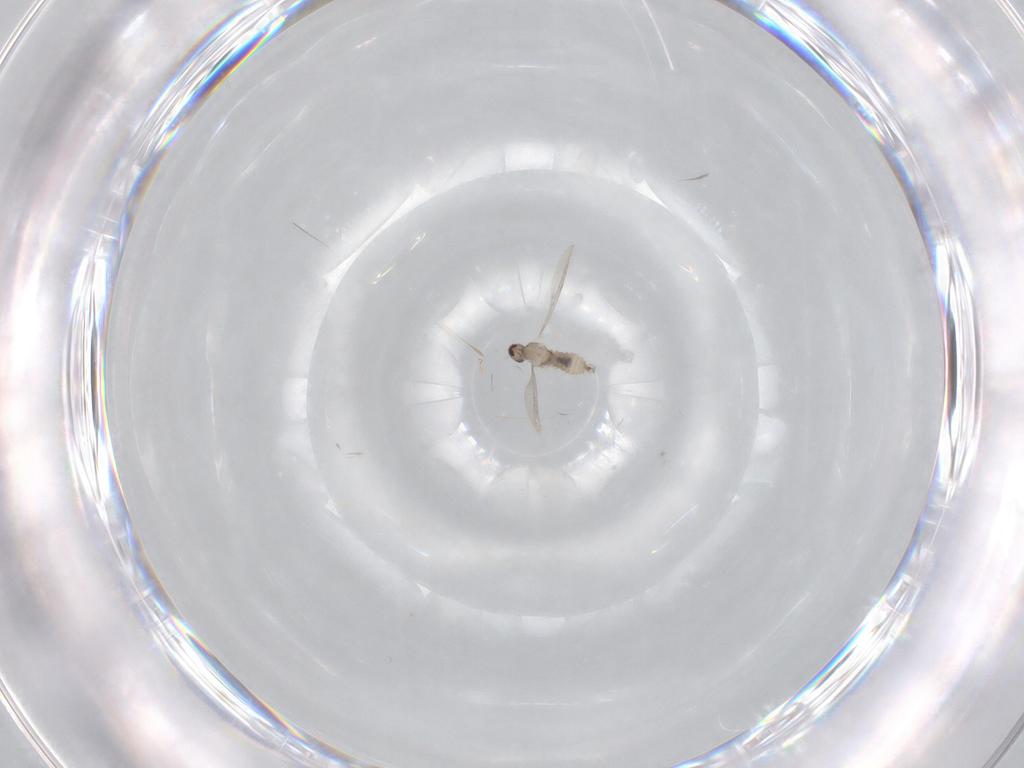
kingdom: Animalia
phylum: Arthropoda
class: Insecta
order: Diptera
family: Cecidomyiidae
